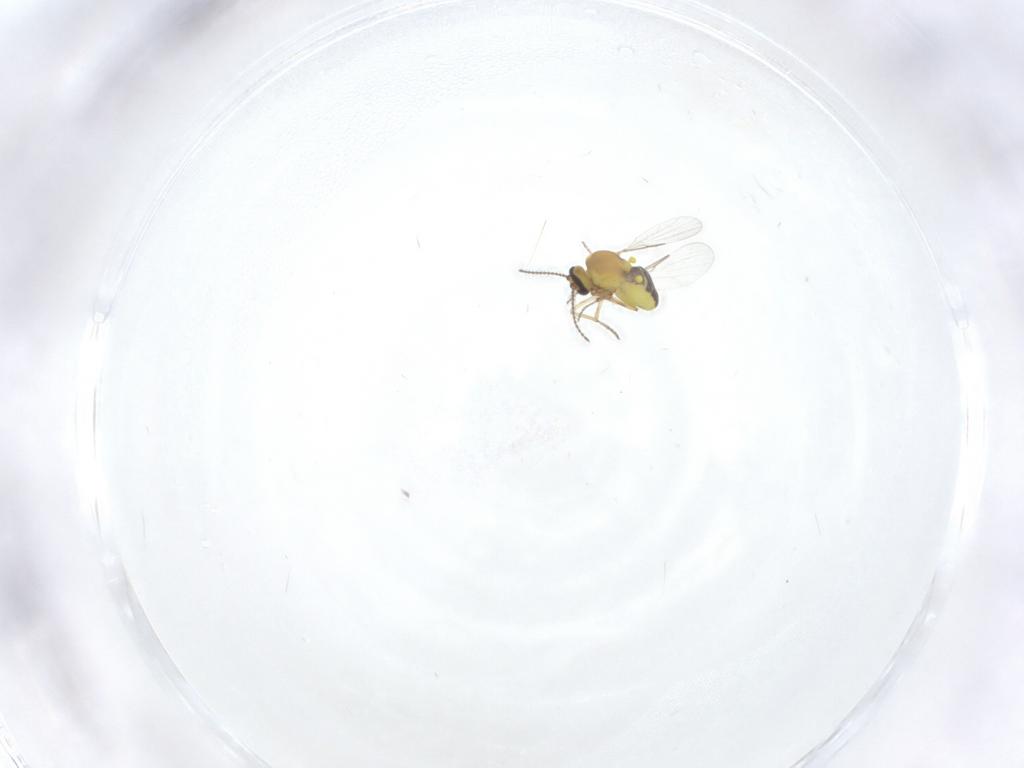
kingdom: Animalia
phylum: Arthropoda
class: Insecta
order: Diptera
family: Ceratopogonidae
